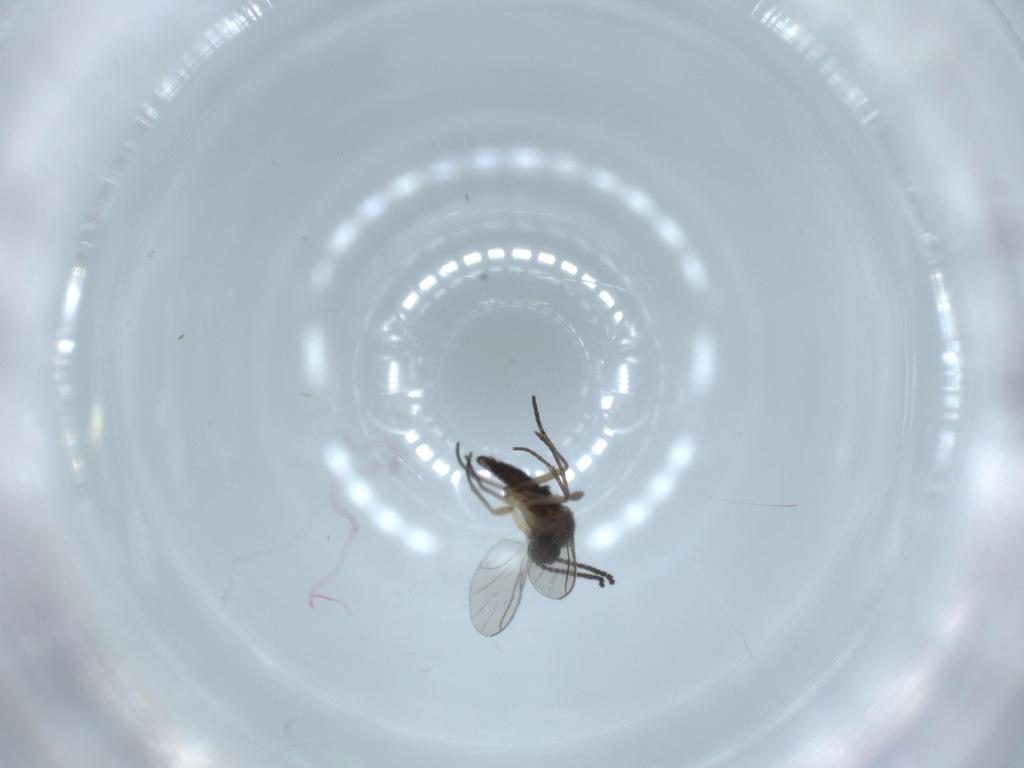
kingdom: Animalia
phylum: Arthropoda
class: Insecta
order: Diptera
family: Sciaridae
